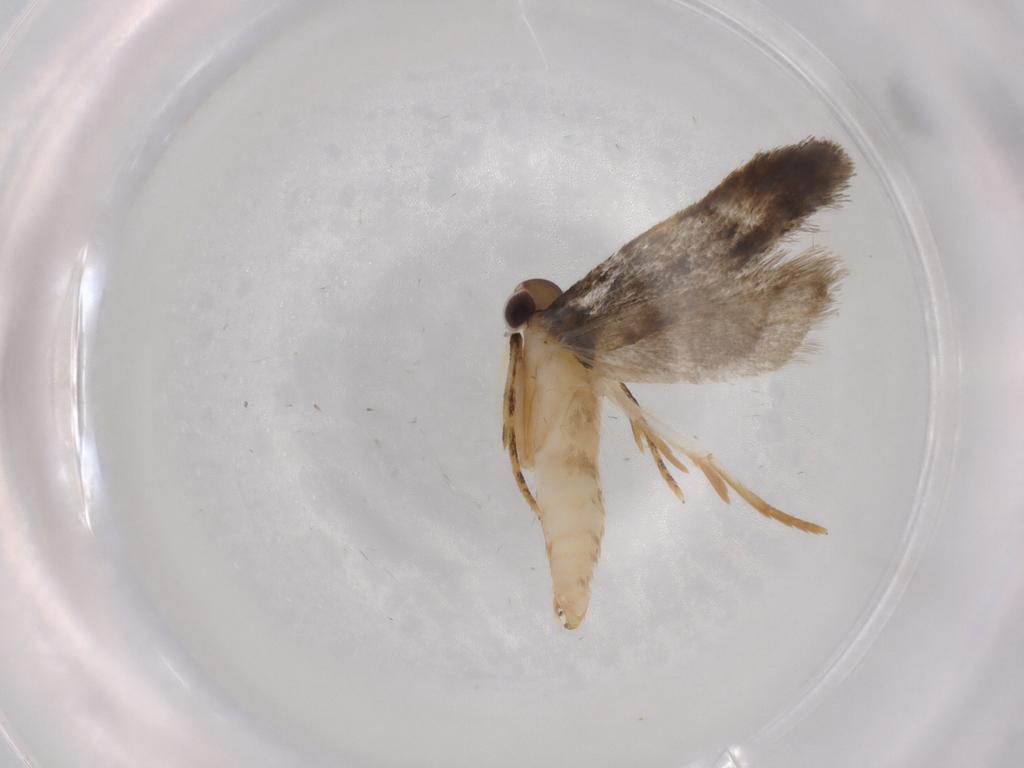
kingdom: Animalia
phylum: Arthropoda
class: Insecta
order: Lepidoptera
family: Autostichidae
